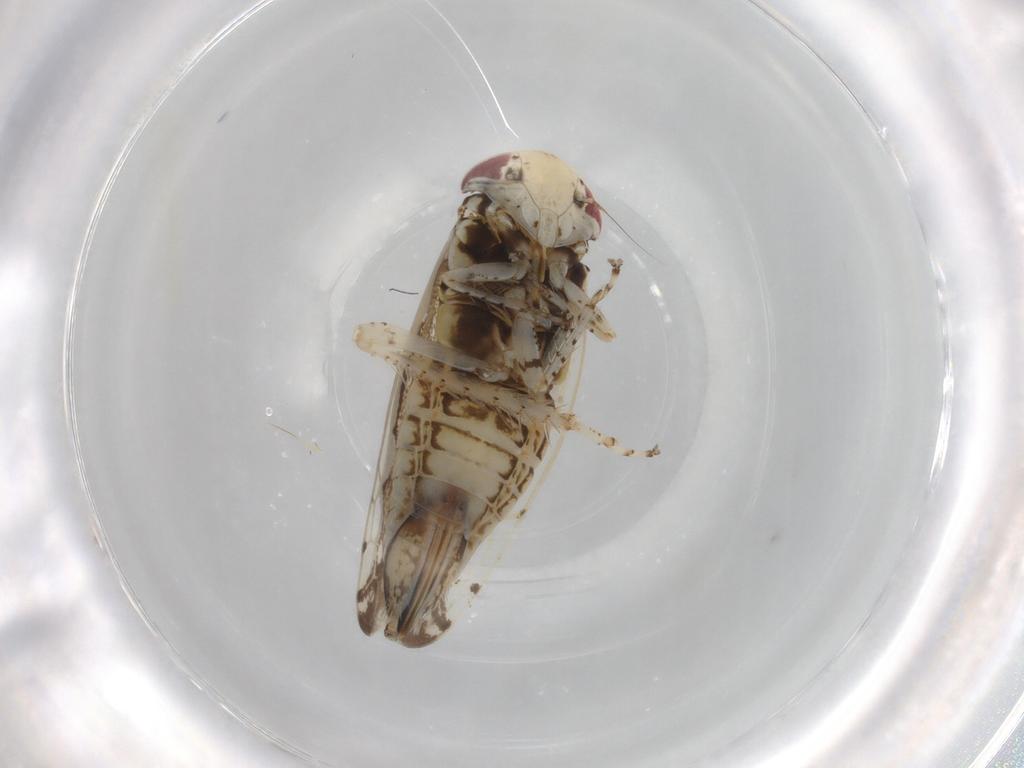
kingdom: Animalia
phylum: Arthropoda
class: Insecta
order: Hemiptera
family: Cicadellidae
